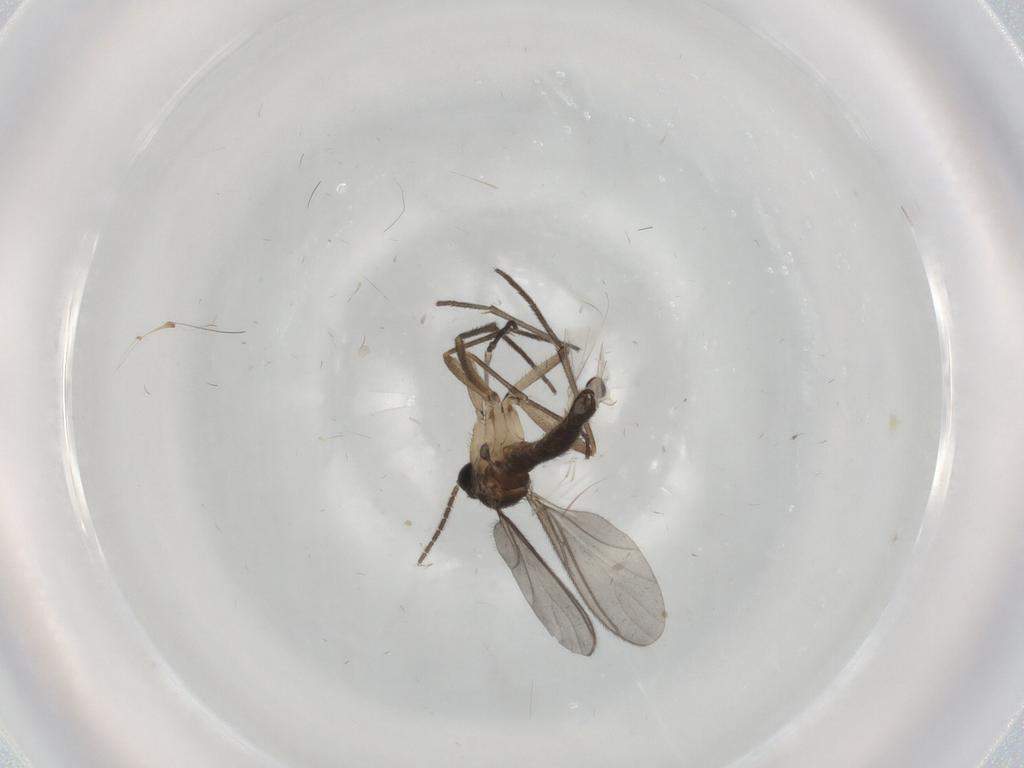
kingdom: Animalia
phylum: Arthropoda
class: Insecta
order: Diptera
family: Cecidomyiidae
